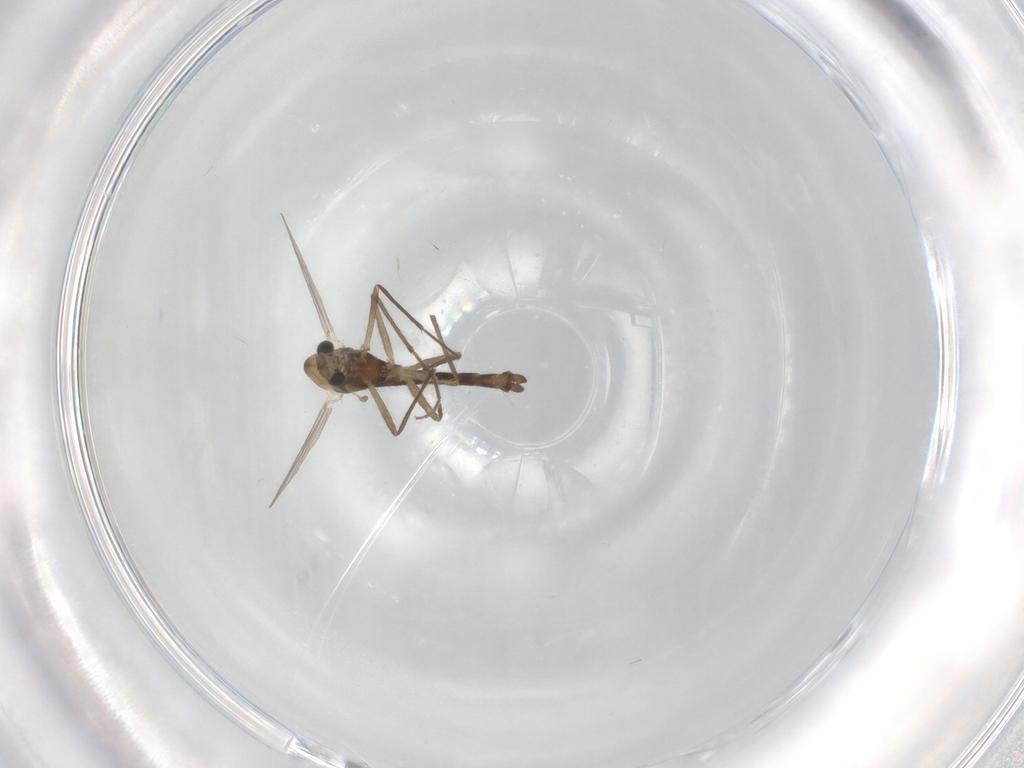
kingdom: Animalia
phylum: Arthropoda
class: Insecta
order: Diptera
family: Chironomidae
